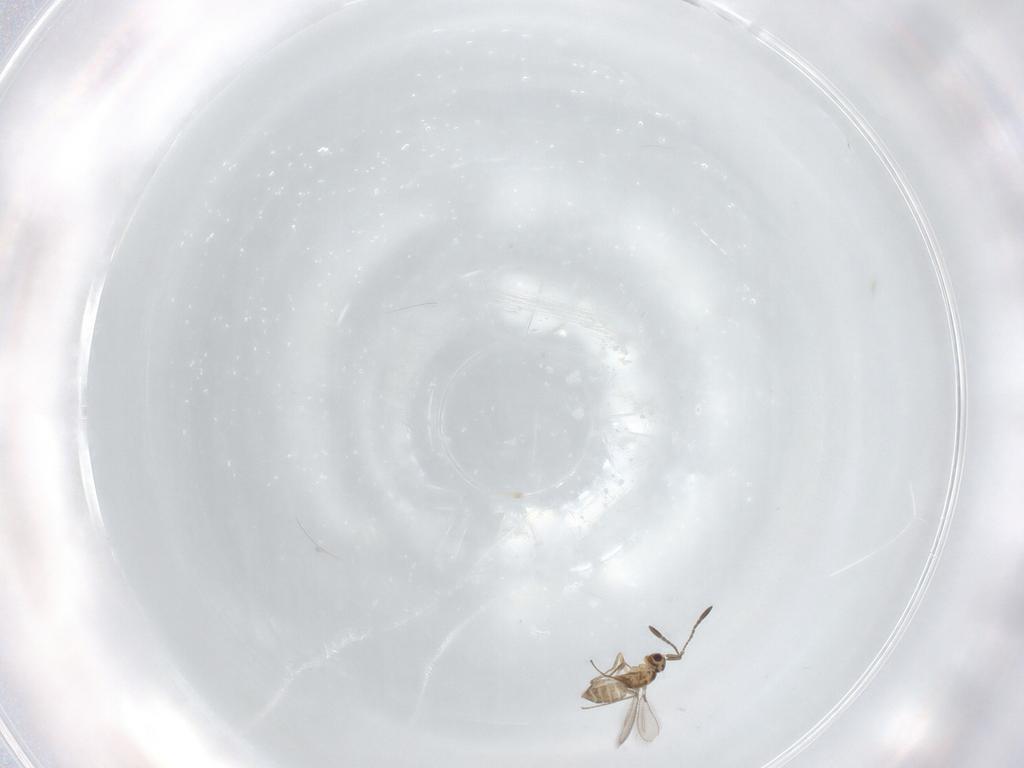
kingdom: Animalia
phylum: Arthropoda
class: Insecta
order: Hymenoptera
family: Mymaridae
